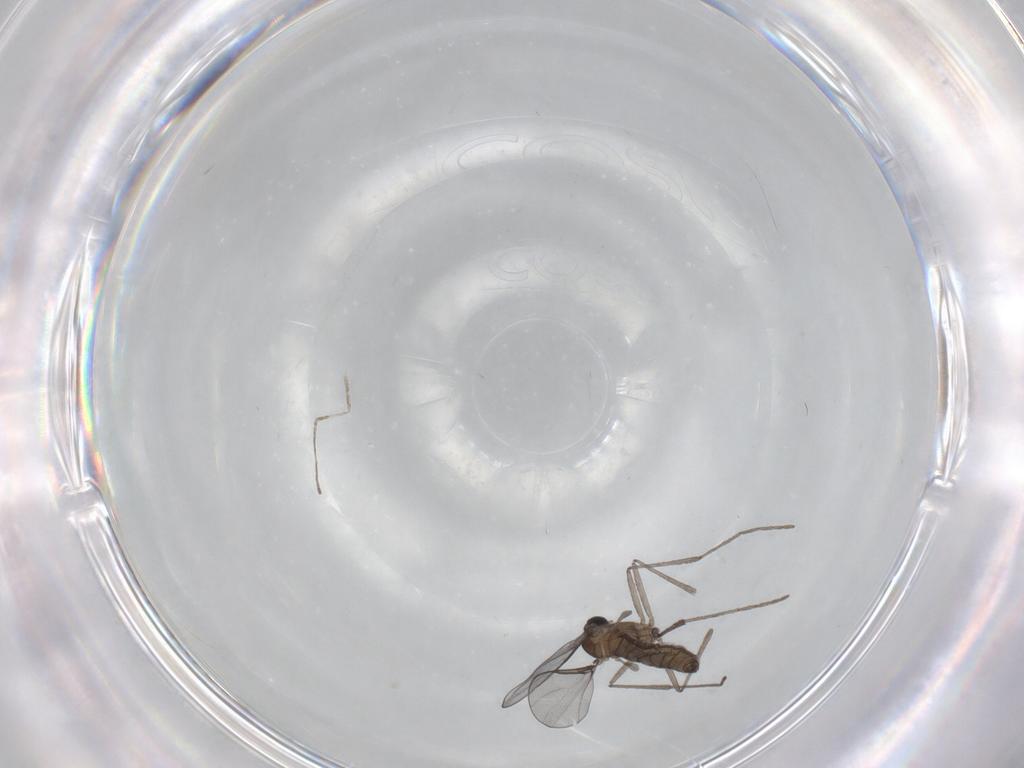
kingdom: Animalia
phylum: Arthropoda
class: Insecta
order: Diptera
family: Cecidomyiidae
